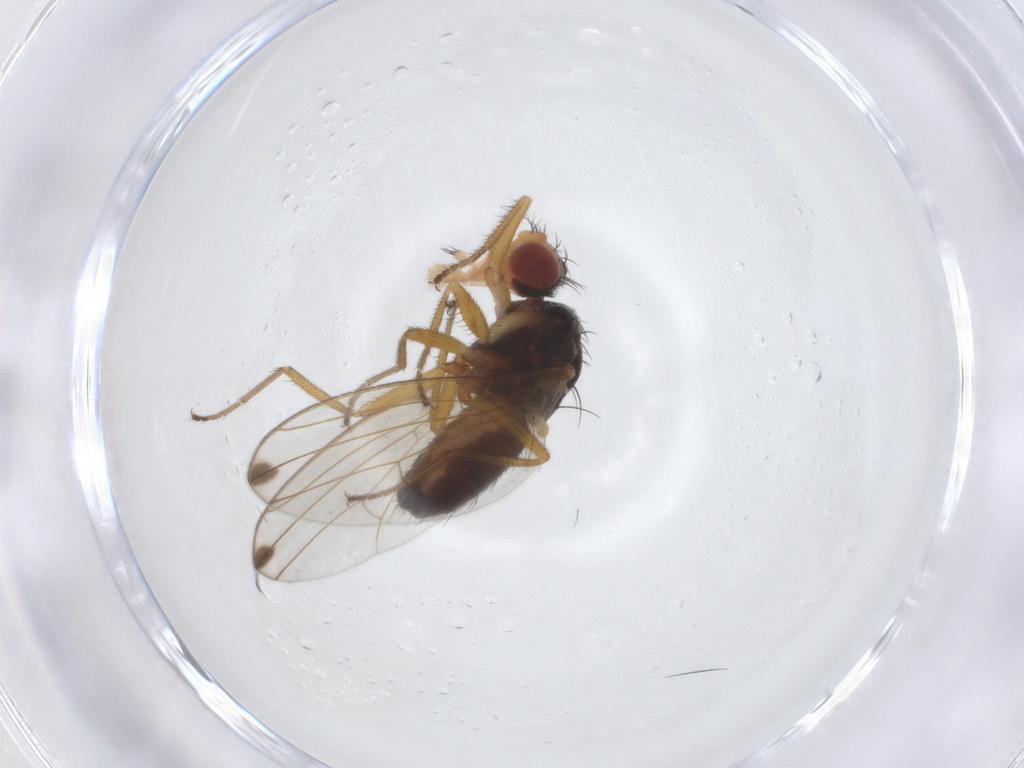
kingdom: Animalia
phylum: Arthropoda
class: Insecta
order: Diptera
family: Drosophilidae
